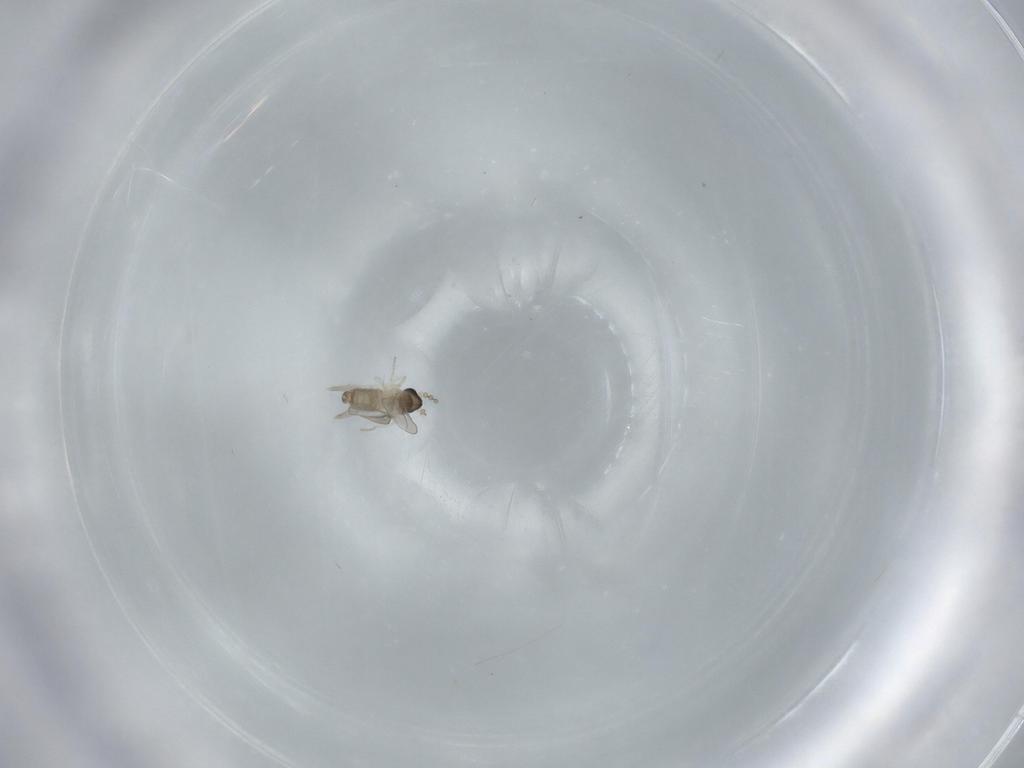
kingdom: Animalia
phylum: Arthropoda
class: Insecta
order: Diptera
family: Cecidomyiidae
